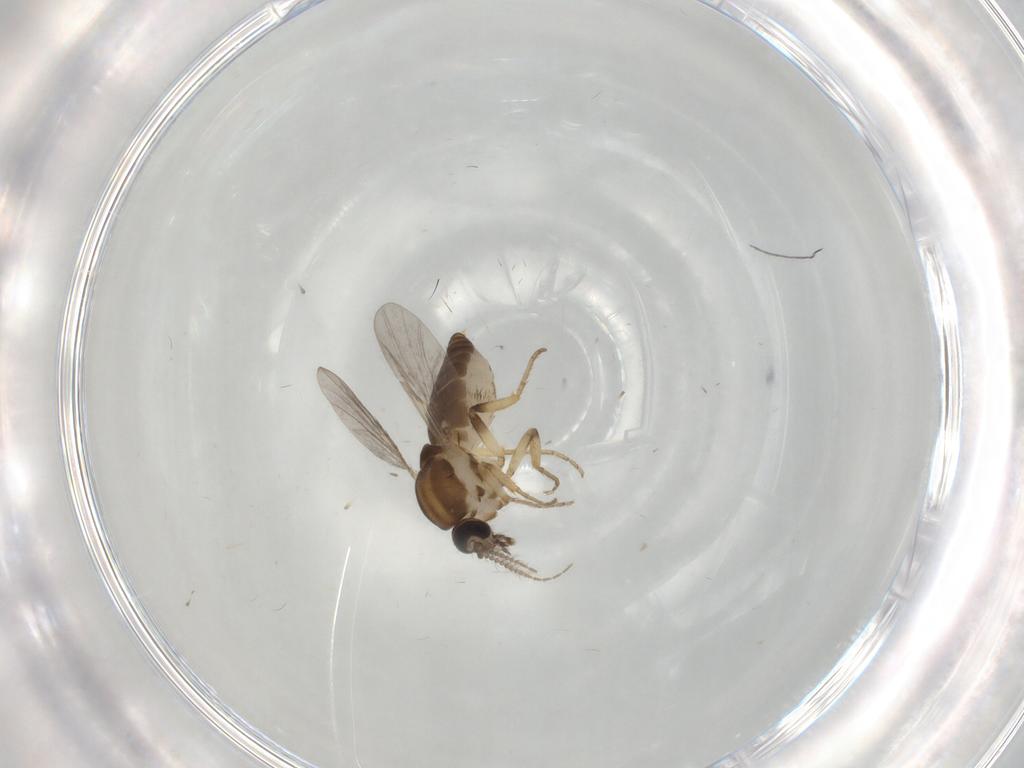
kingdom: Animalia
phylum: Arthropoda
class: Insecta
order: Diptera
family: Ceratopogonidae
